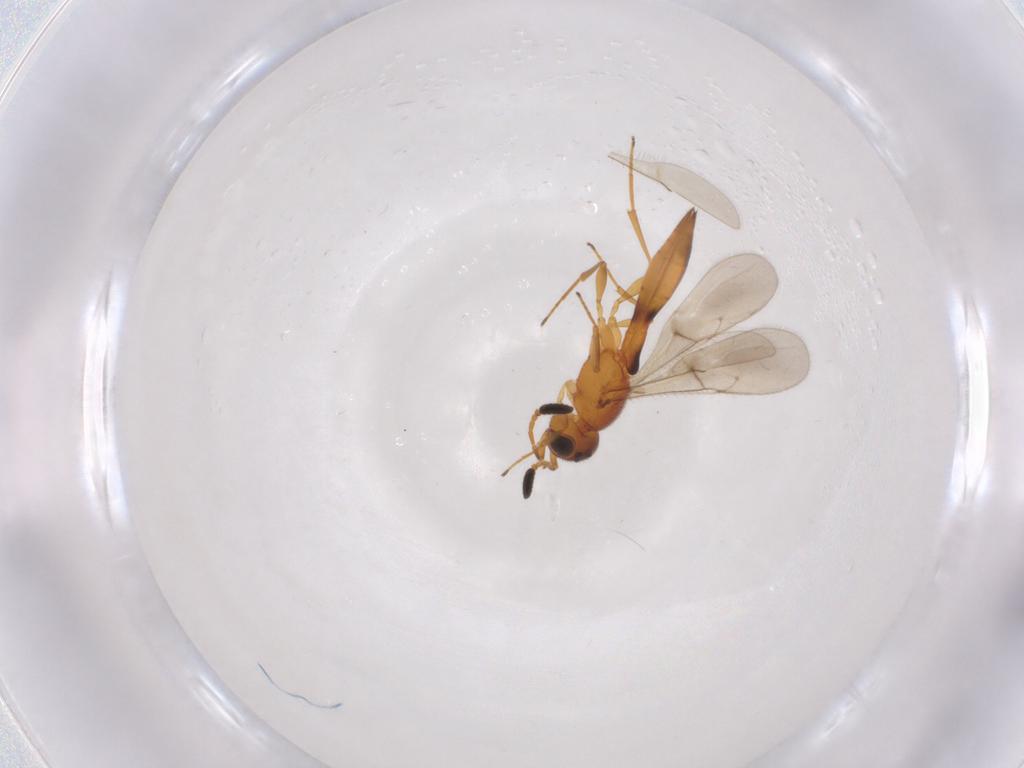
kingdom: Animalia
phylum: Arthropoda
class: Insecta
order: Hymenoptera
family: Scelionidae
